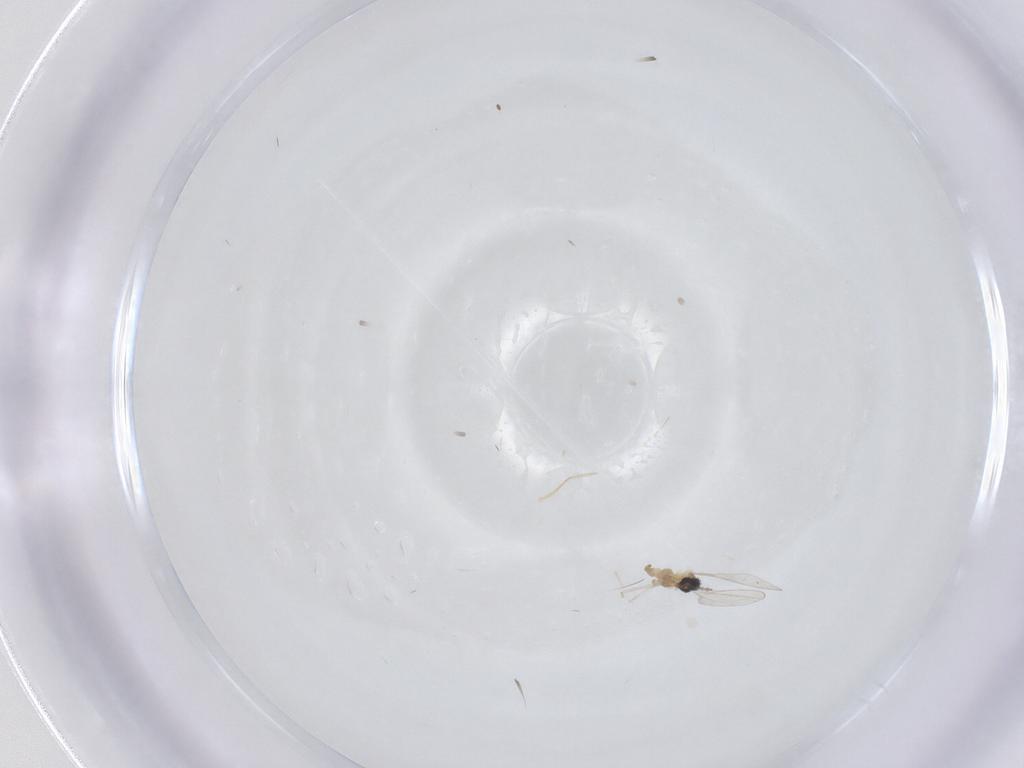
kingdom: Animalia
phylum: Arthropoda
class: Insecta
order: Diptera
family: Cecidomyiidae
